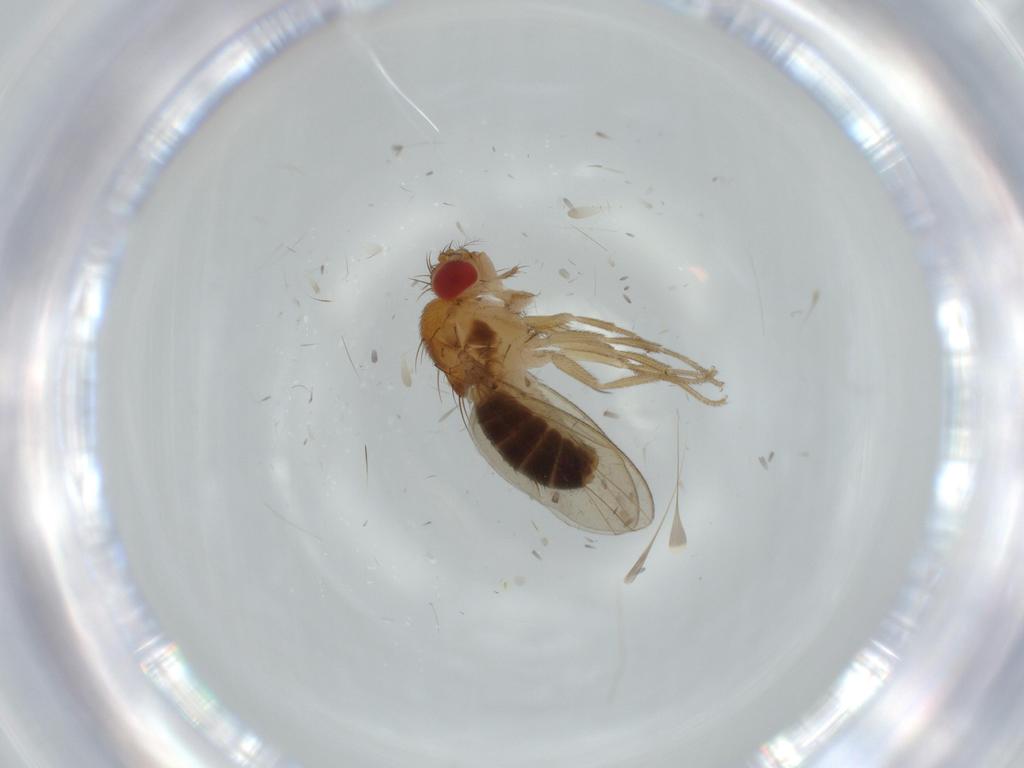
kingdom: Animalia
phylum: Arthropoda
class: Insecta
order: Diptera
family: Drosophilidae
